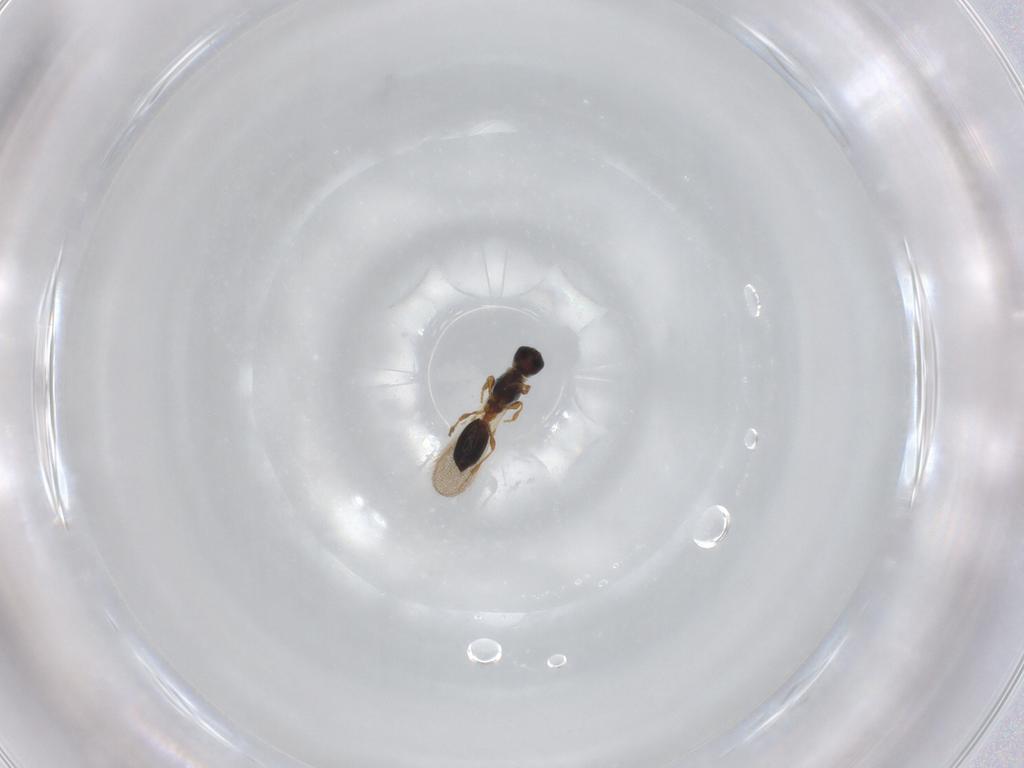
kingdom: Animalia
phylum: Arthropoda
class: Insecta
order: Hymenoptera
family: Diapriidae
